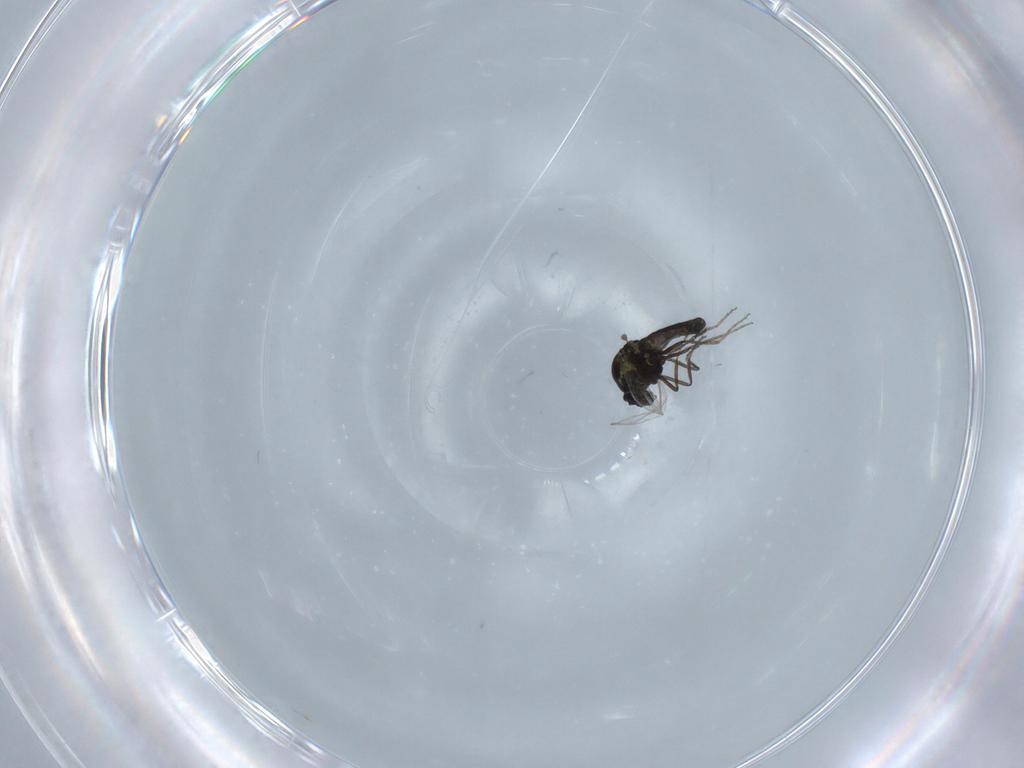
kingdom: Animalia
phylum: Arthropoda
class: Insecta
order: Diptera
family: Ceratopogonidae
